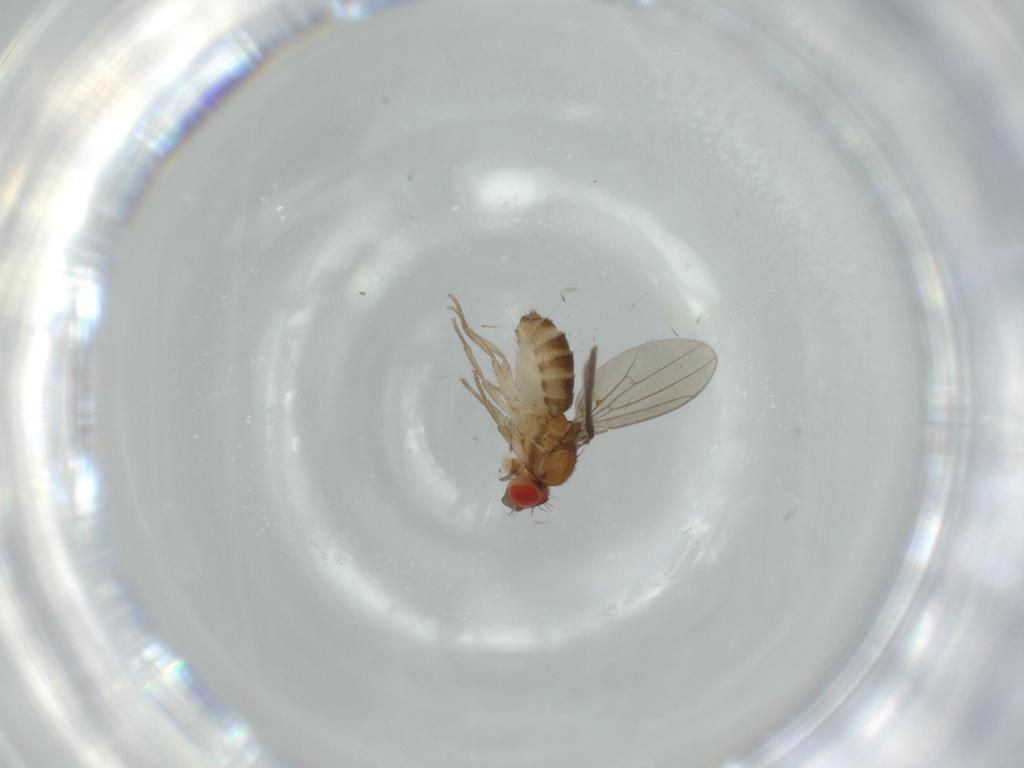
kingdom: Animalia
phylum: Arthropoda
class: Insecta
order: Diptera
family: Drosophilidae
